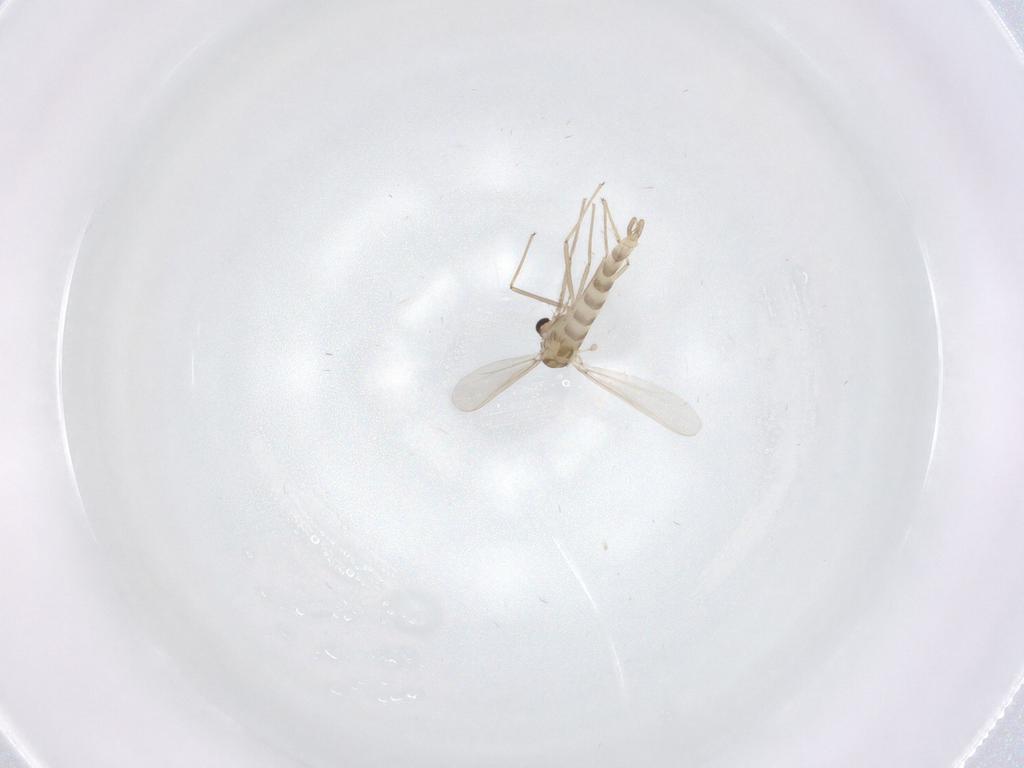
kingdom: Animalia
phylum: Arthropoda
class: Insecta
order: Diptera
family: Chironomidae
